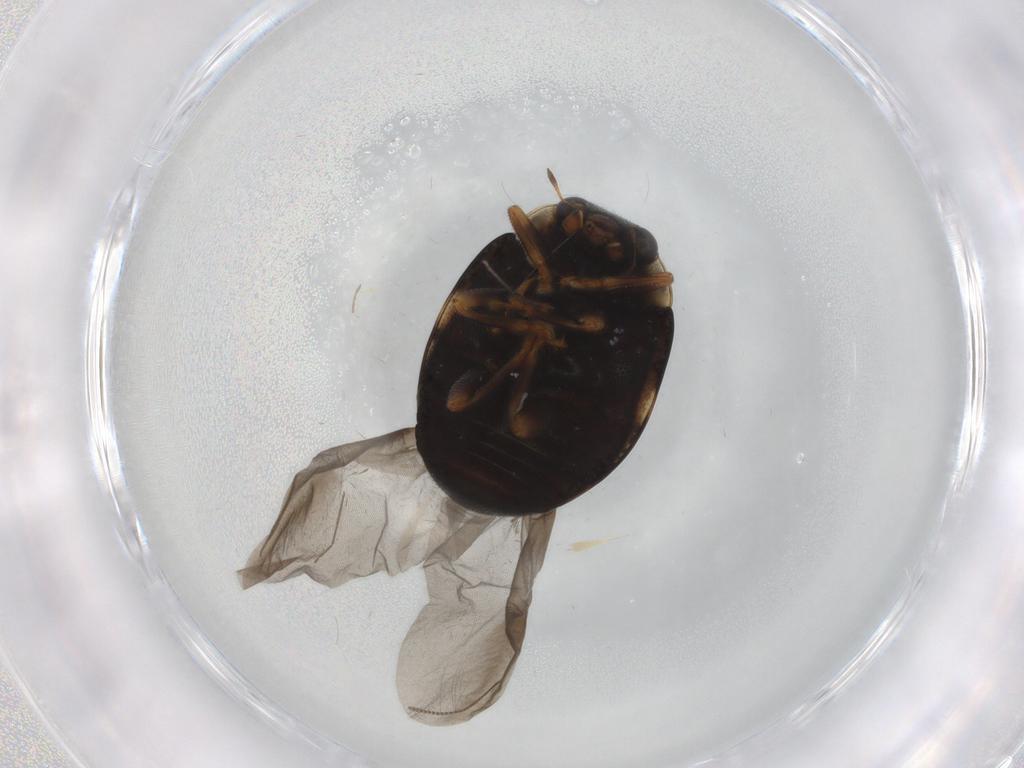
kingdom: Animalia
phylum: Arthropoda
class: Insecta
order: Coleoptera
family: Coccinellidae
